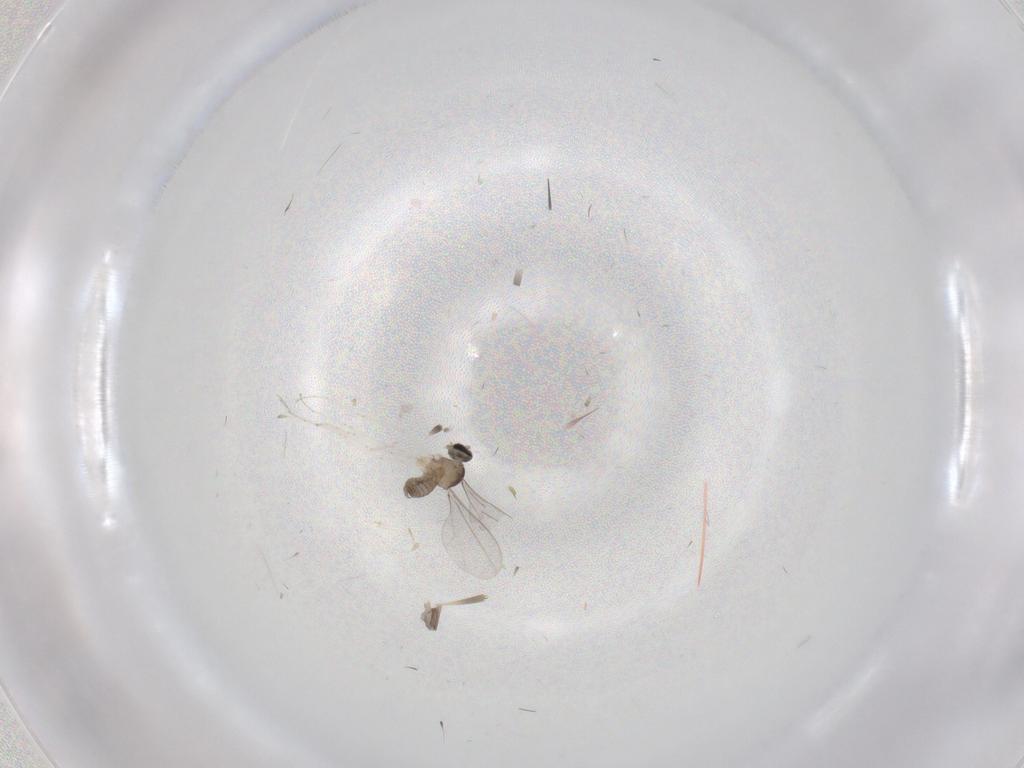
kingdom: Animalia
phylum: Arthropoda
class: Insecta
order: Diptera
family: Cecidomyiidae
